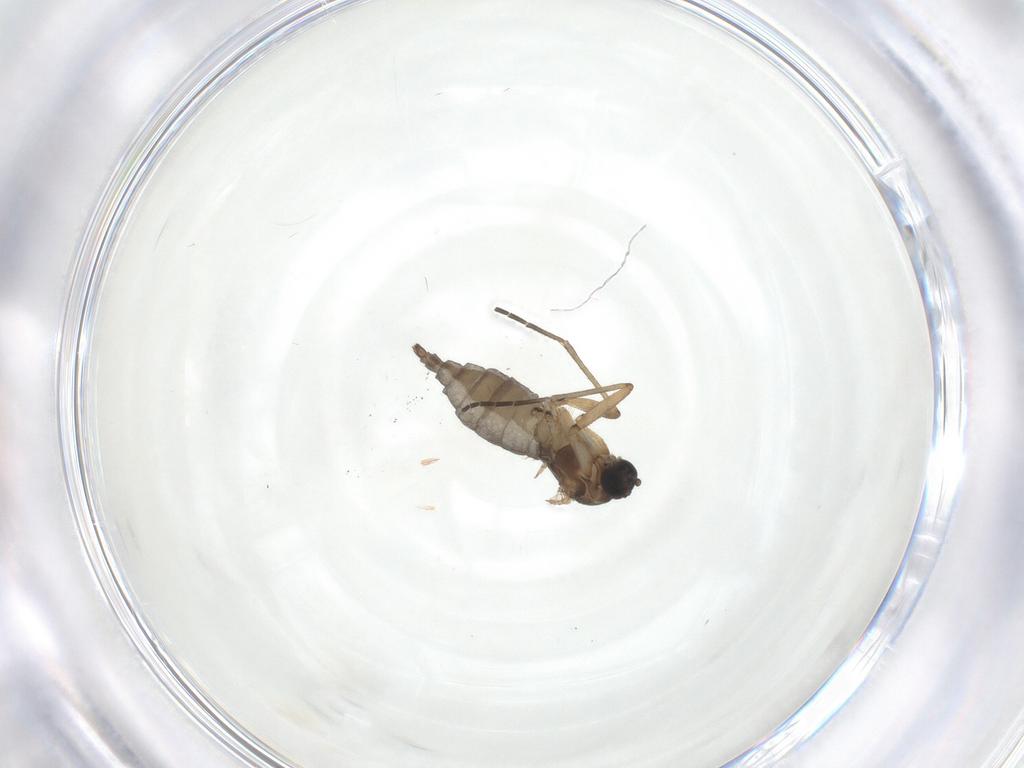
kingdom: Animalia
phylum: Arthropoda
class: Insecta
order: Diptera
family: Sciaridae
